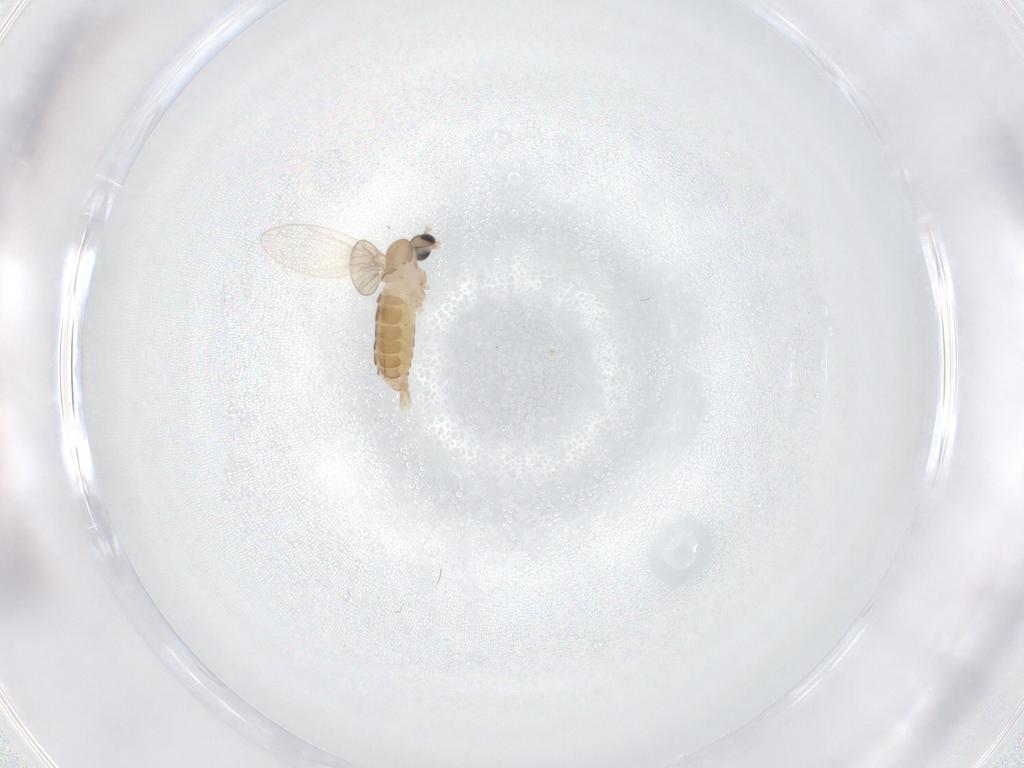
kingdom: Animalia
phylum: Arthropoda
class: Insecta
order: Diptera
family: Psychodidae
